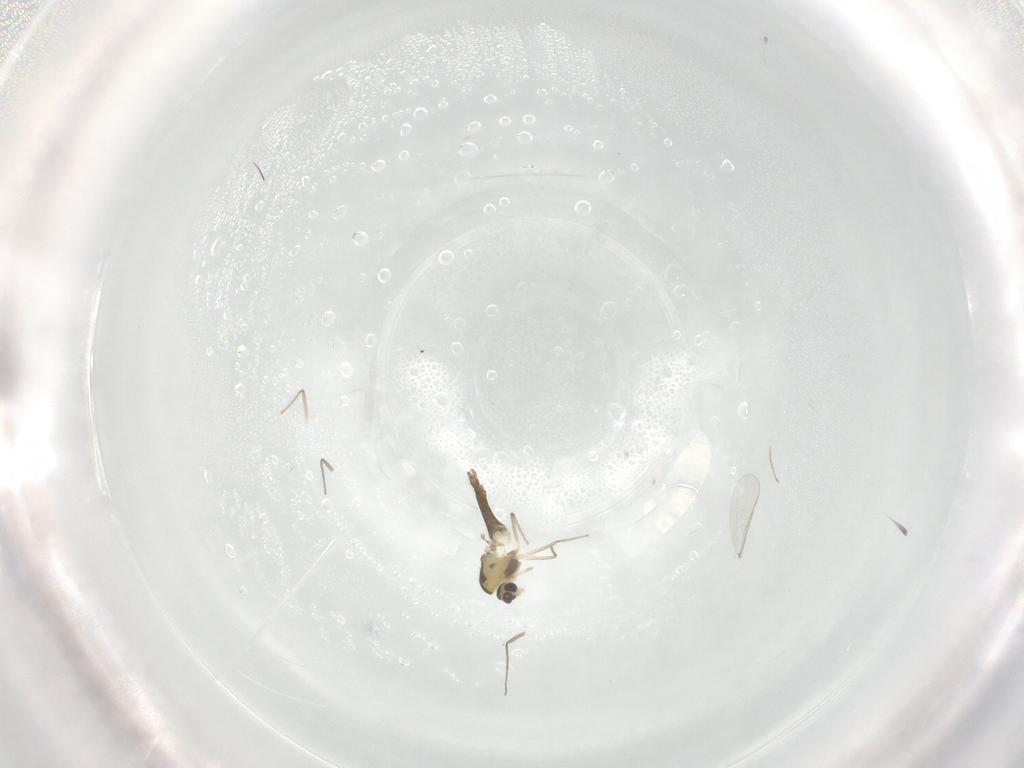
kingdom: Animalia
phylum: Arthropoda
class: Insecta
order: Diptera
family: Chironomidae
